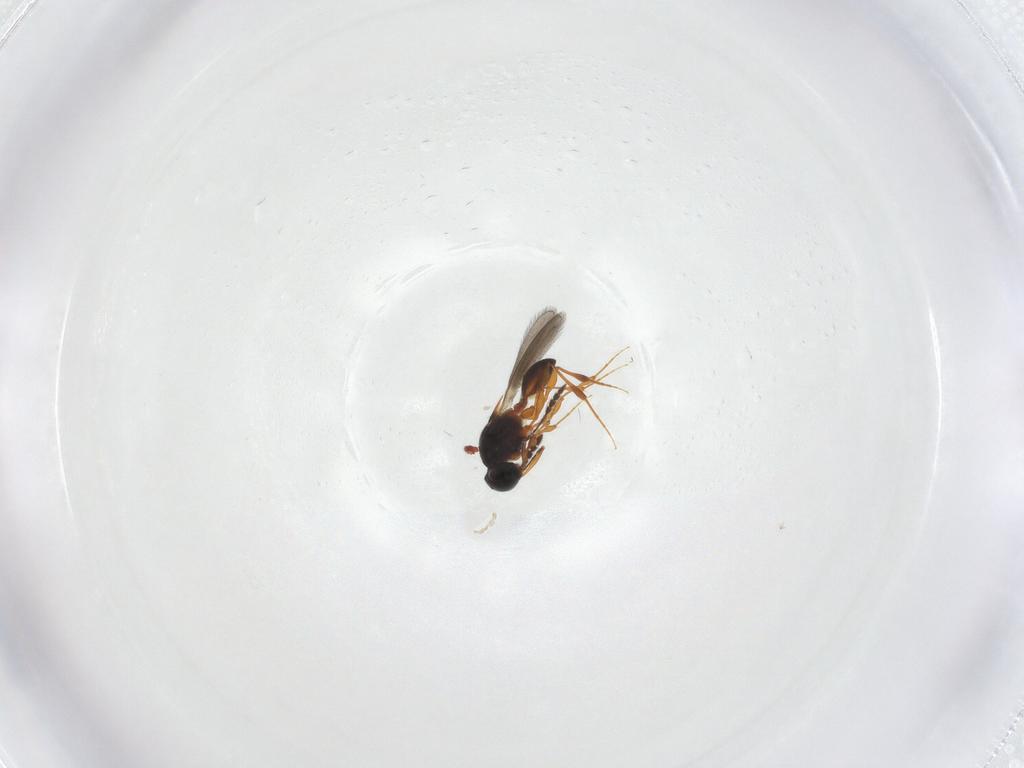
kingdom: Animalia
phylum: Arthropoda
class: Insecta
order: Hymenoptera
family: Platygastridae
